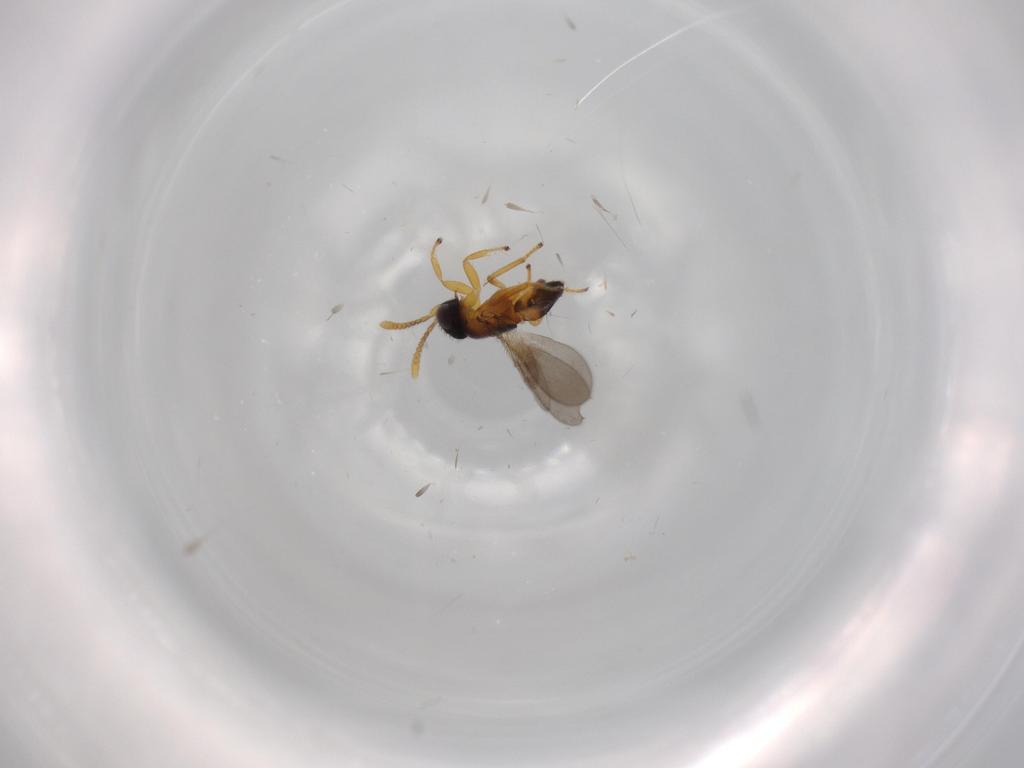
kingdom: Animalia
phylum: Arthropoda
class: Insecta
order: Hymenoptera
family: Encyrtidae
